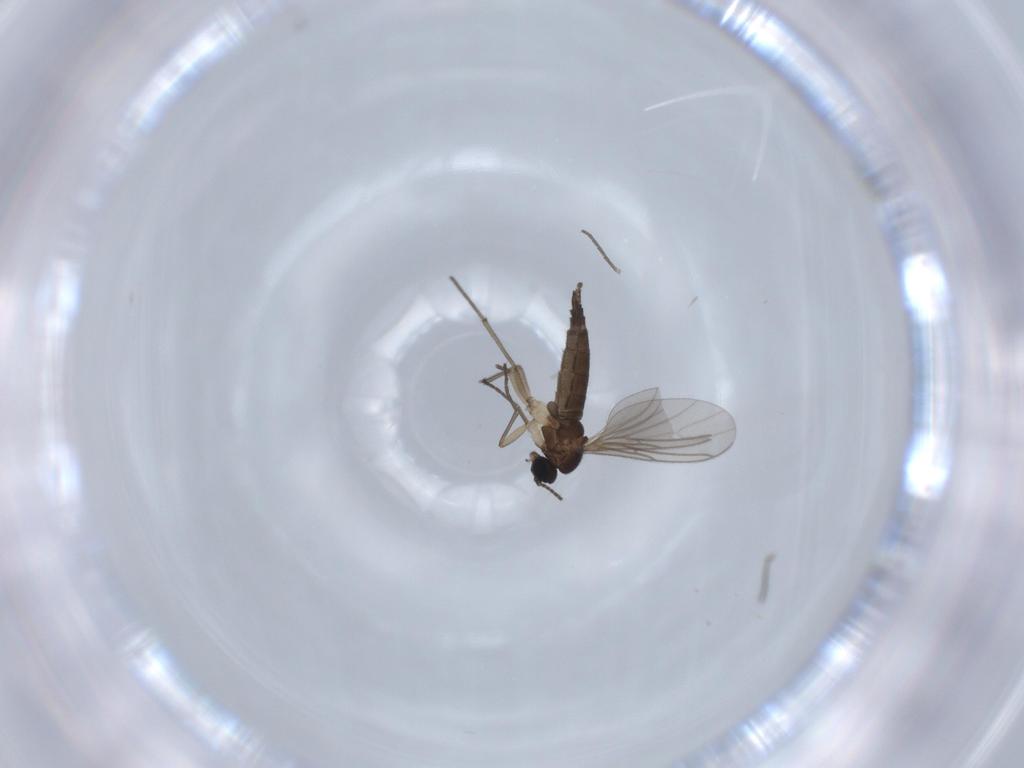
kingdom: Animalia
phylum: Arthropoda
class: Insecta
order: Diptera
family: Sciaridae
